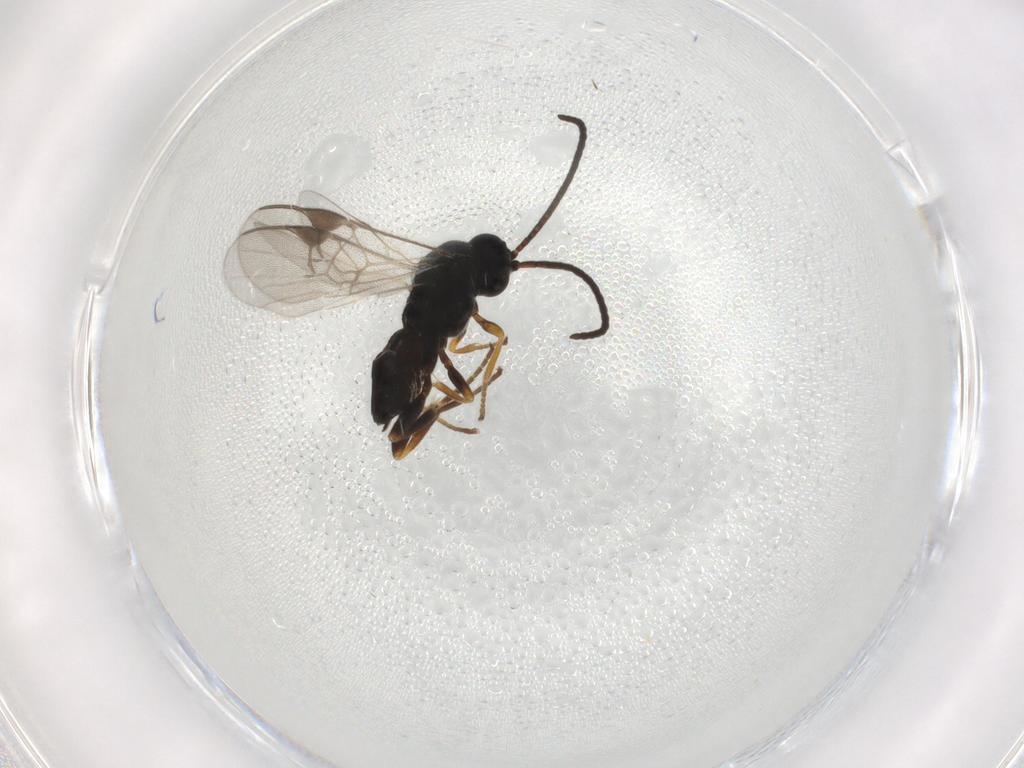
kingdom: Animalia
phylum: Arthropoda
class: Insecta
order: Hymenoptera
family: Braconidae
